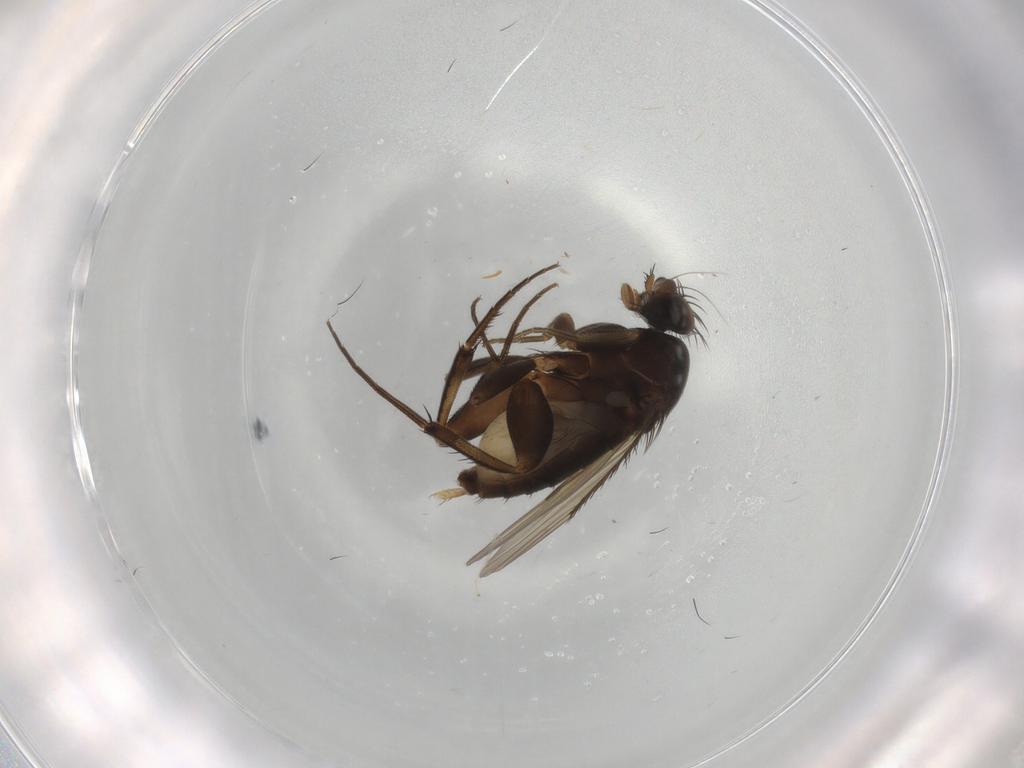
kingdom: Animalia
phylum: Arthropoda
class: Insecta
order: Diptera
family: Phoridae
